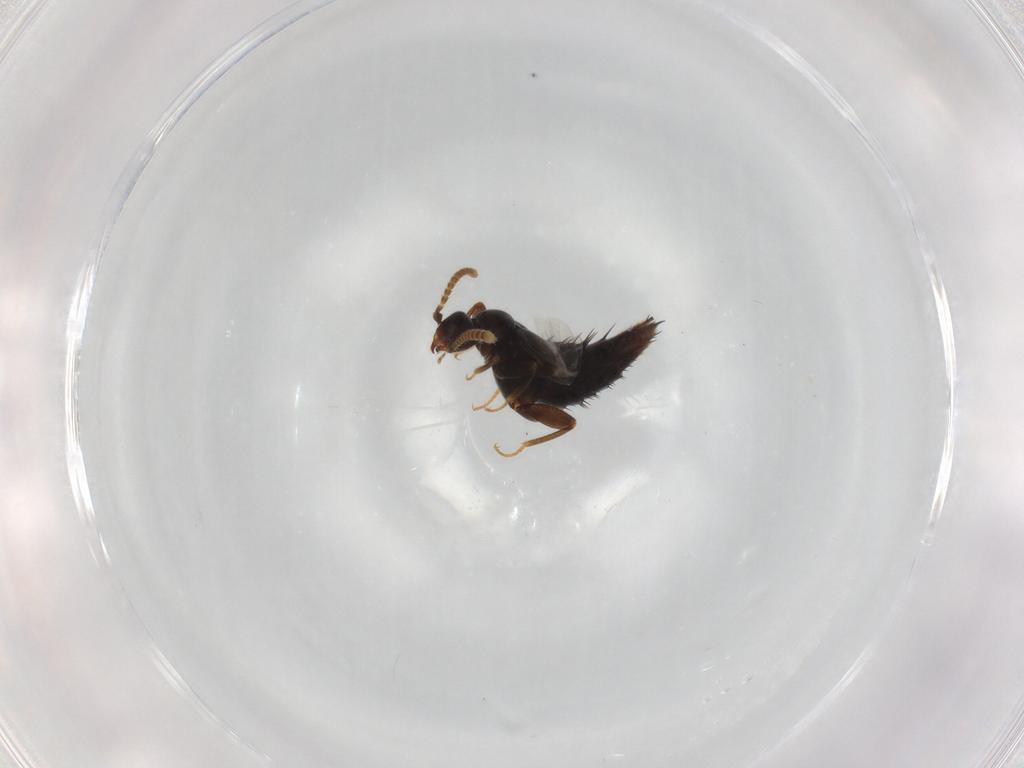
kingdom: Animalia
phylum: Arthropoda
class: Insecta
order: Coleoptera
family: Staphylinidae
